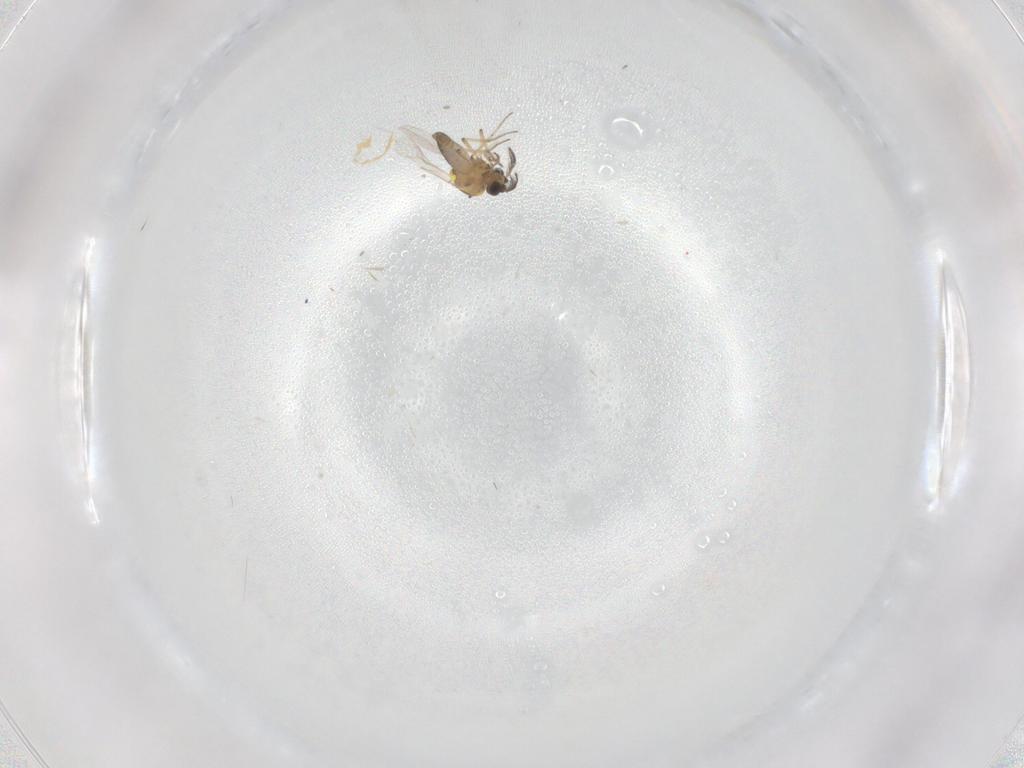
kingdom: Animalia
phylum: Arthropoda
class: Insecta
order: Diptera
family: Ceratopogonidae
